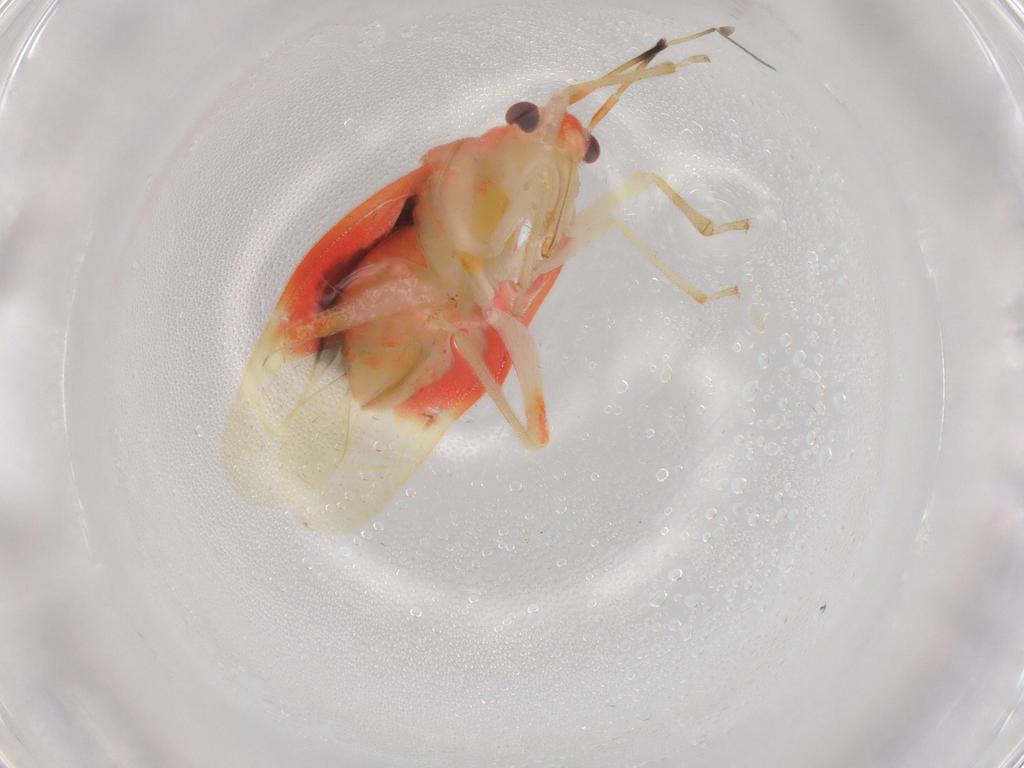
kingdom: Animalia
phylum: Arthropoda
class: Insecta
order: Hemiptera
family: Miridae
